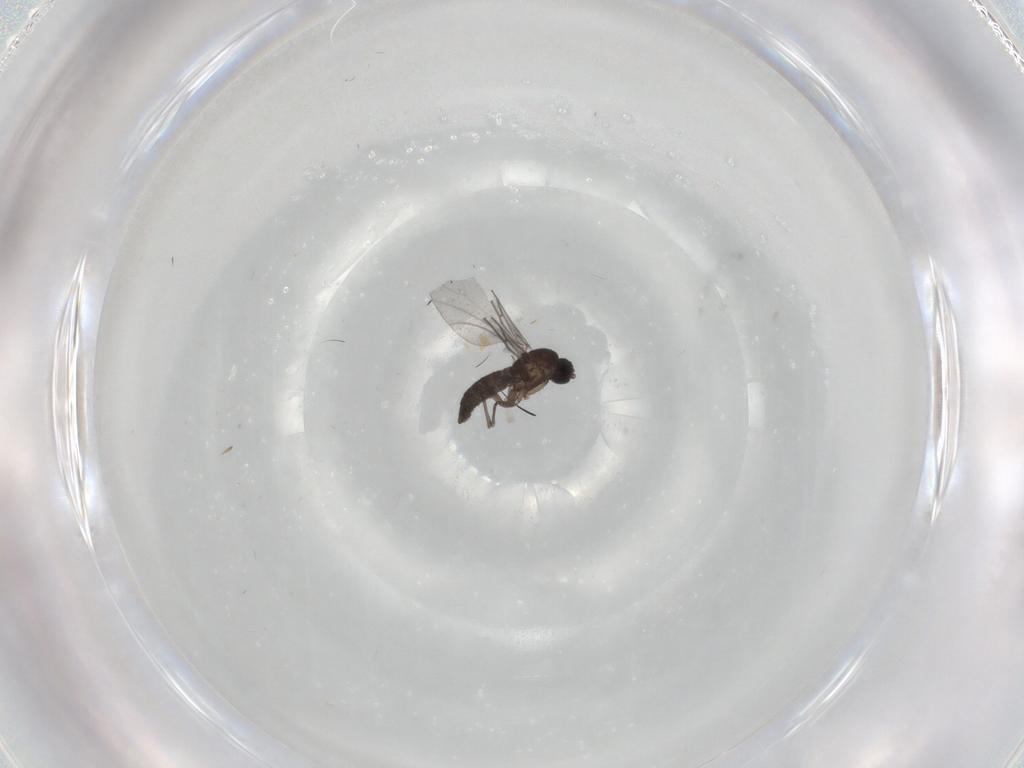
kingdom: Animalia
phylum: Arthropoda
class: Insecta
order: Diptera
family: Sciaridae
